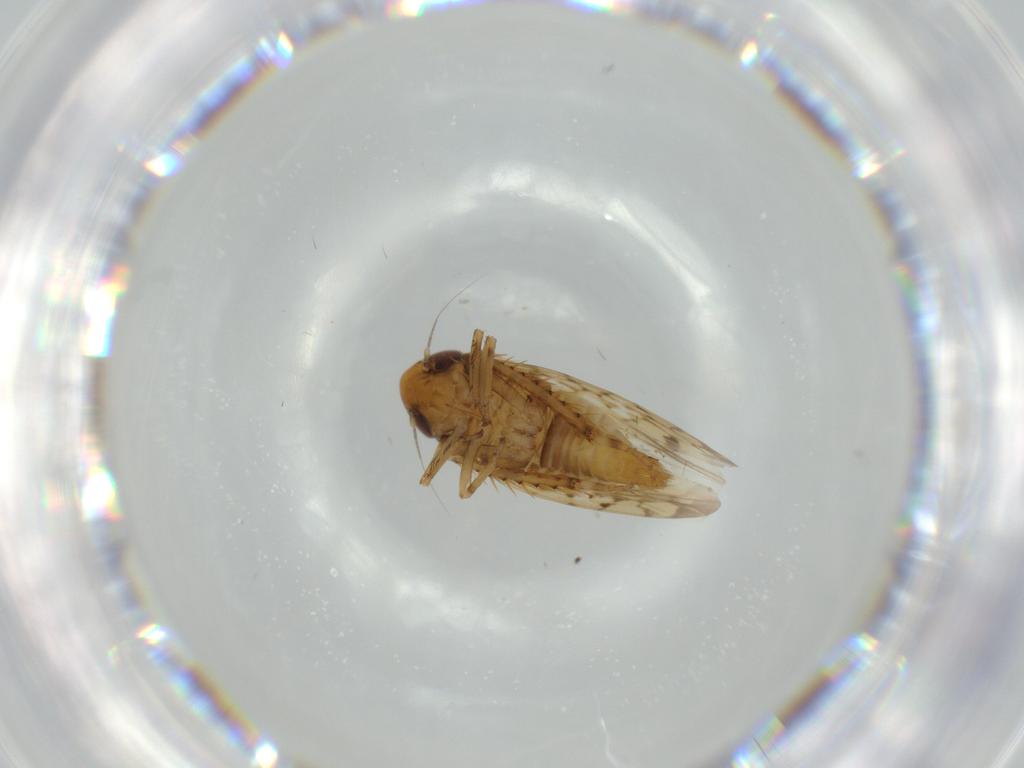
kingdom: Animalia
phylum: Arthropoda
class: Insecta
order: Hemiptera
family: Cicadellidae
